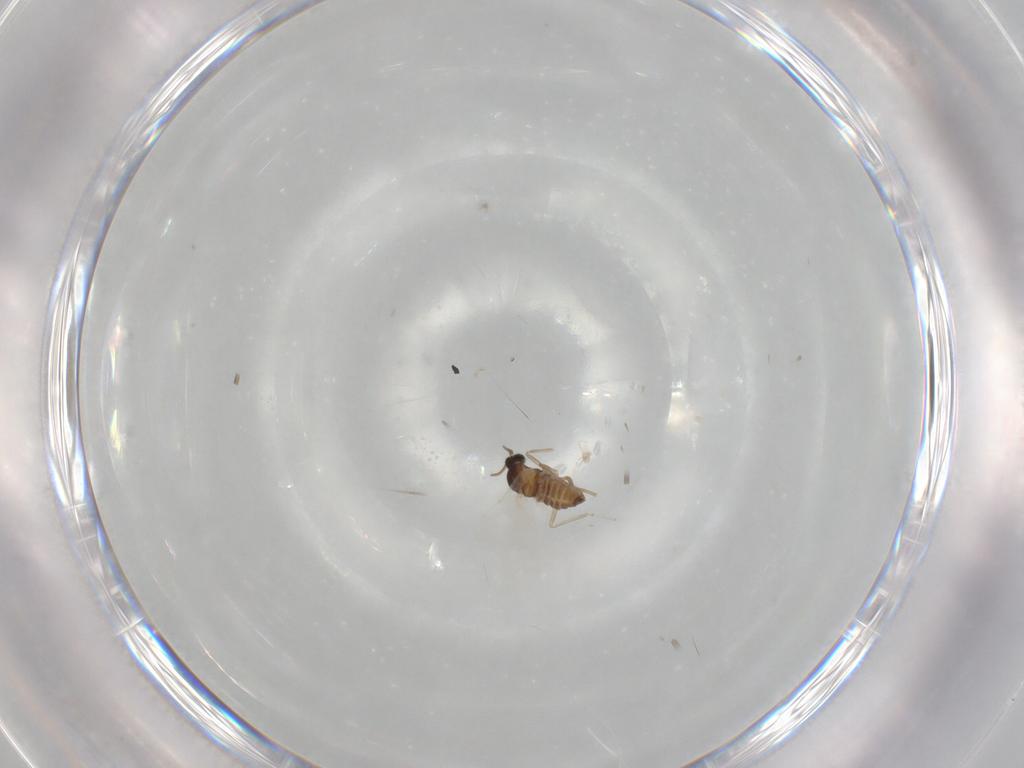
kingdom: Animalia
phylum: Arthropoda
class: Insecta
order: Diptera
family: Cecidomyiidae
